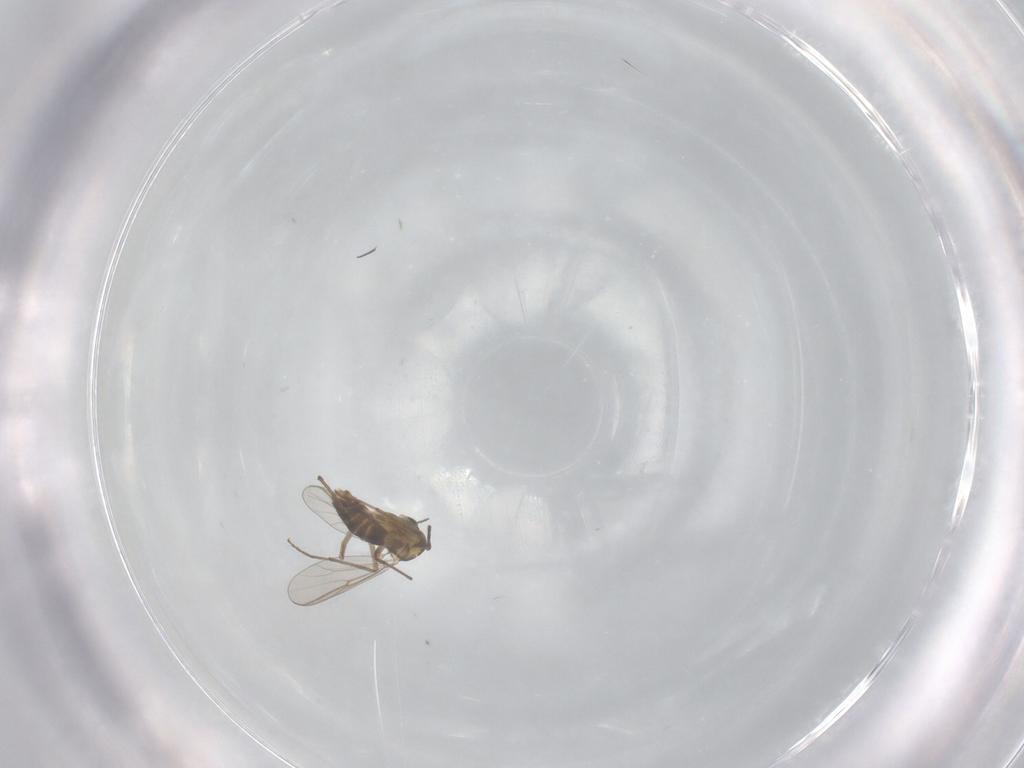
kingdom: Animalia
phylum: Arthropoda
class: Insecta
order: Diptera
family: Chironomidae
